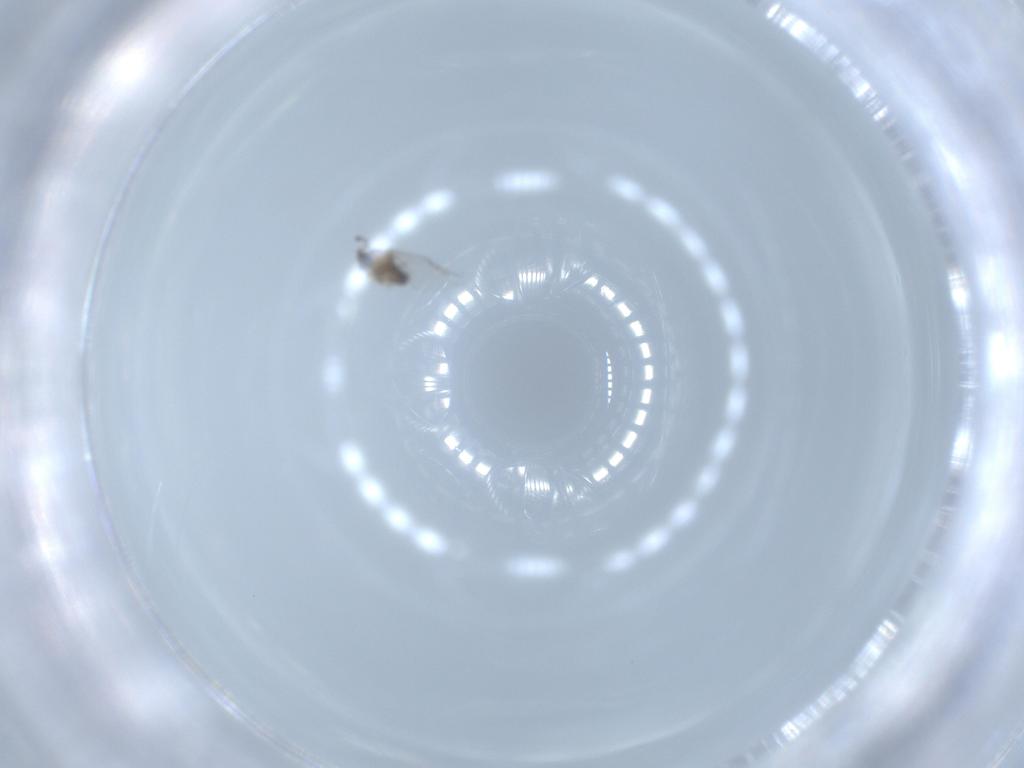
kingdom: Animalia
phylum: Arthropoda
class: Insecta
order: Diptera
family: Cecidomyiidae
